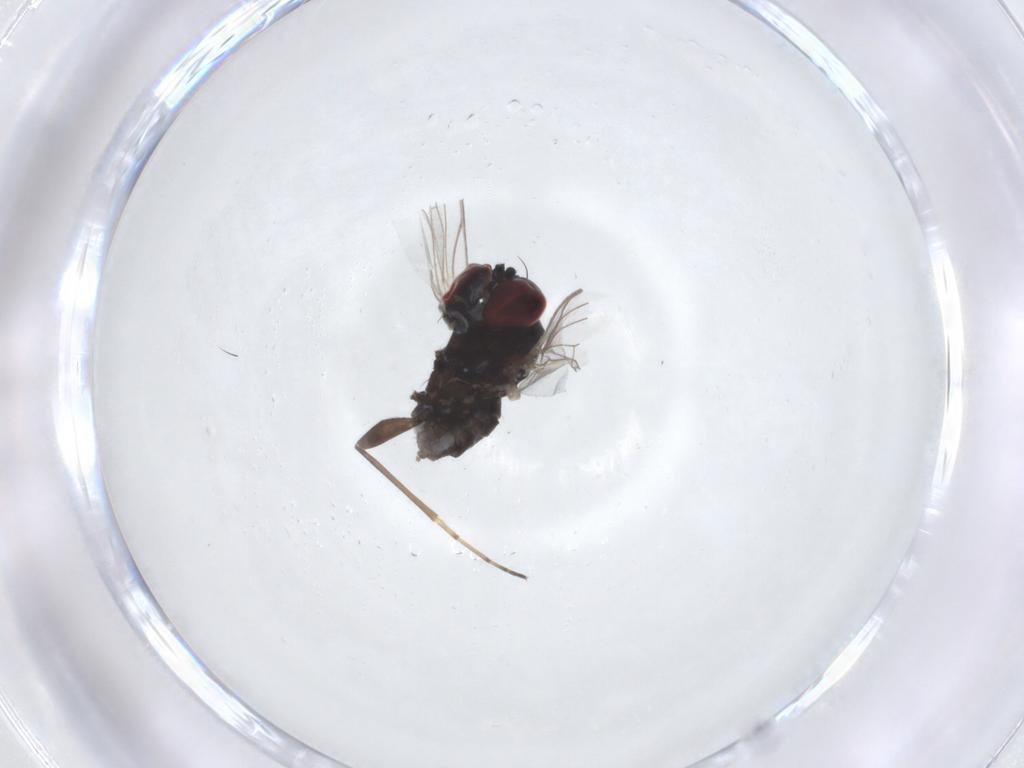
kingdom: Animalia
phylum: Arthropoda
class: Insecta
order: Diptera
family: Dolichopodidae
